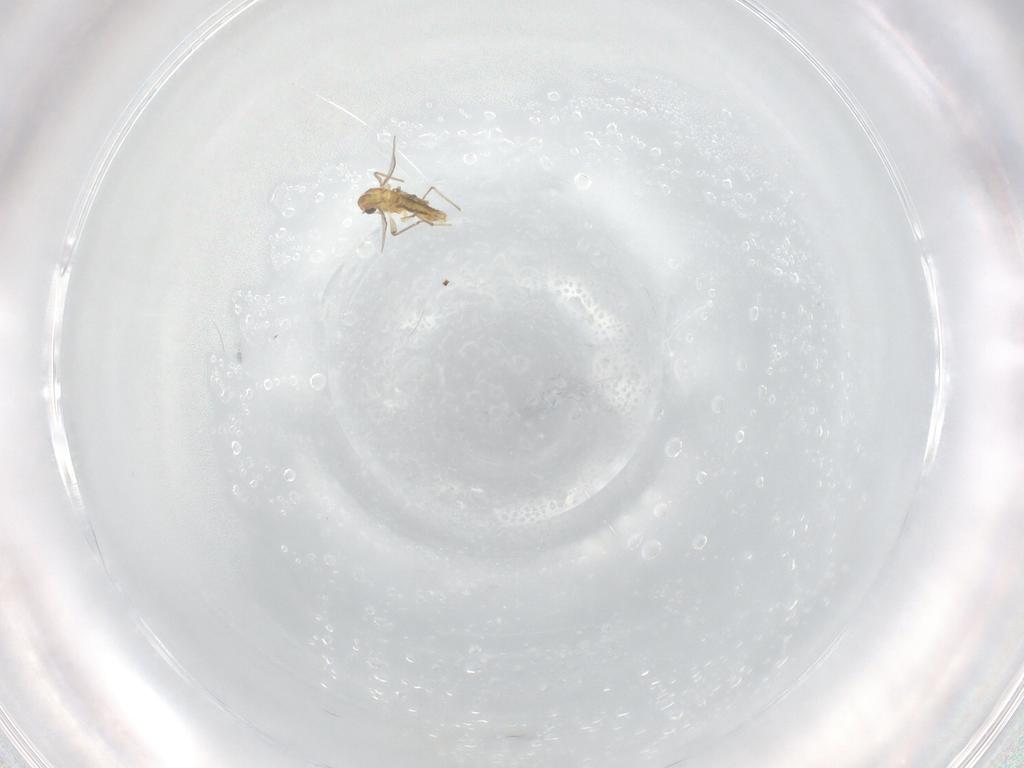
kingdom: Animalia
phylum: Arthropoda
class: Insecta
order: Diptera
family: Chironomidae
